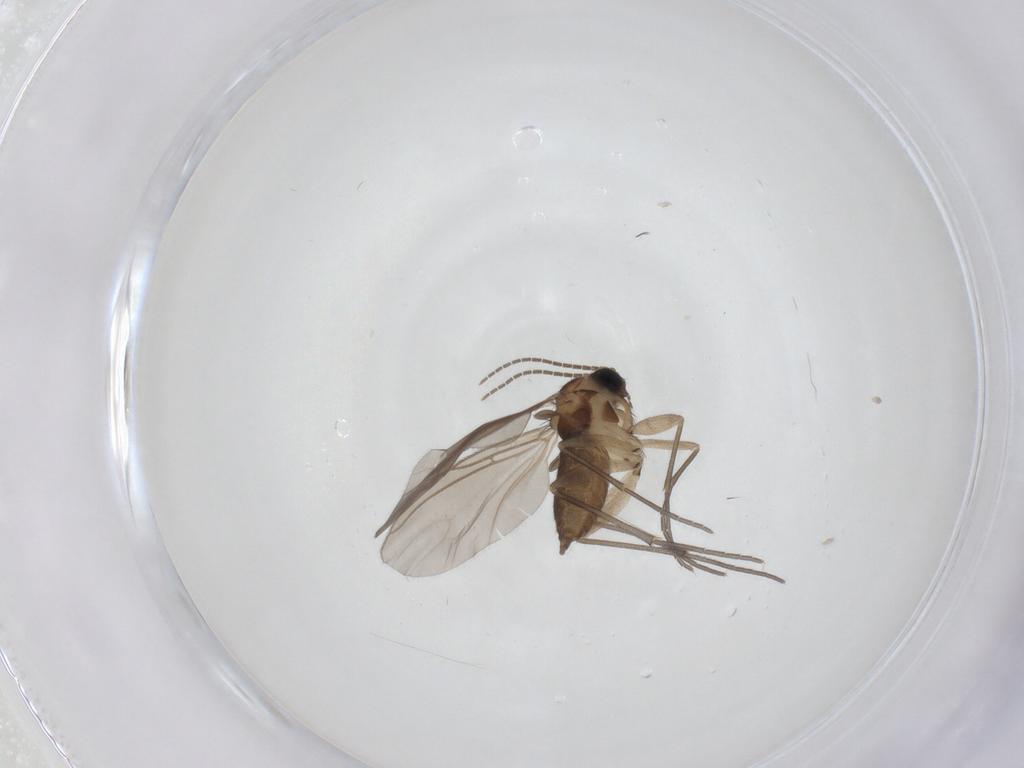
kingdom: Animalia
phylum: Arthropoda
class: Insecta
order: Diptera
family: Sciaridae
